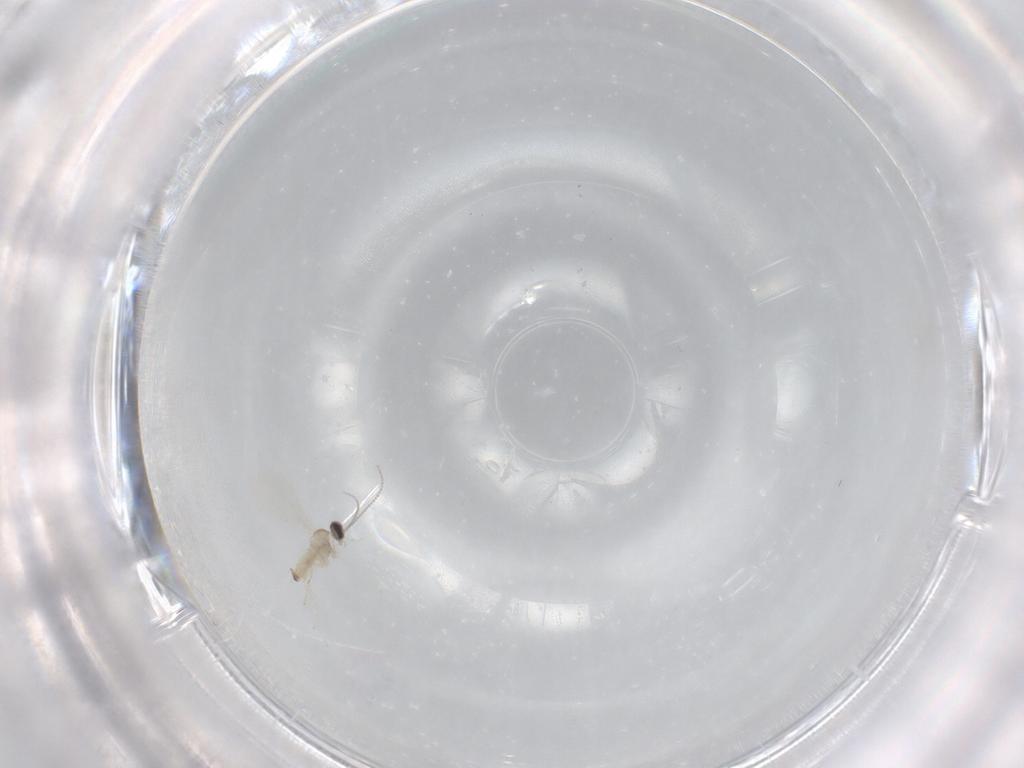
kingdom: Animalia
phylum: Arthropoda
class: Insecta
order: Diptera
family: Cecidomyiidae
